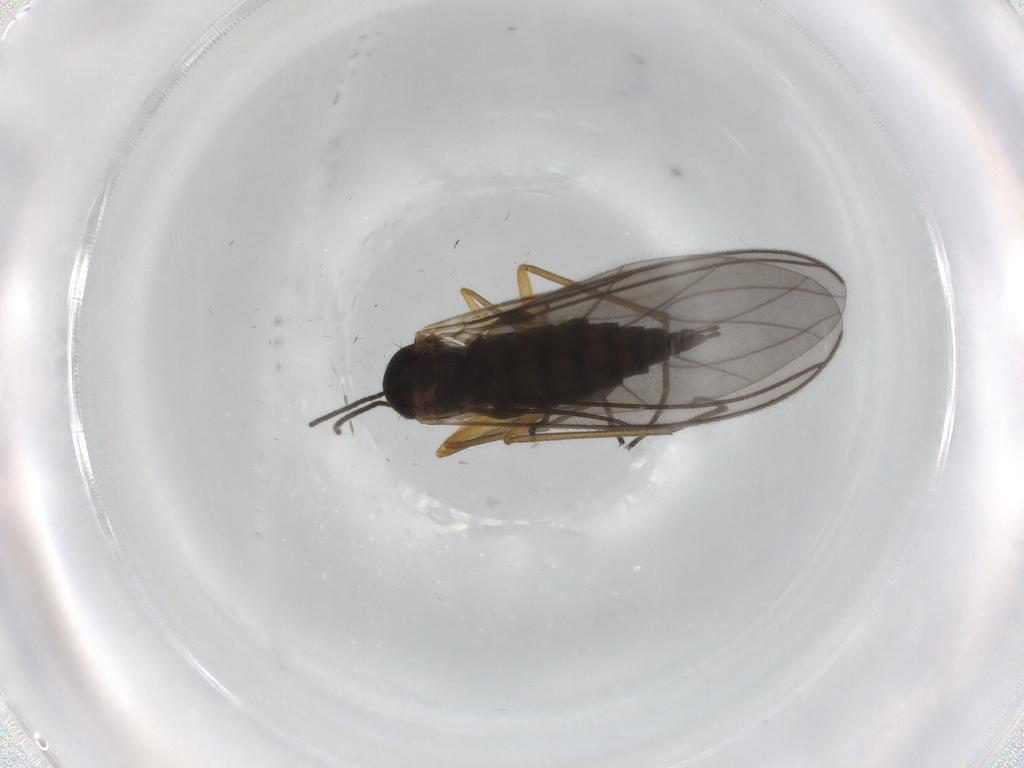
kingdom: Animalia
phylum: Arthropoda
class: Insecta
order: Diptera
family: Sciaridae
